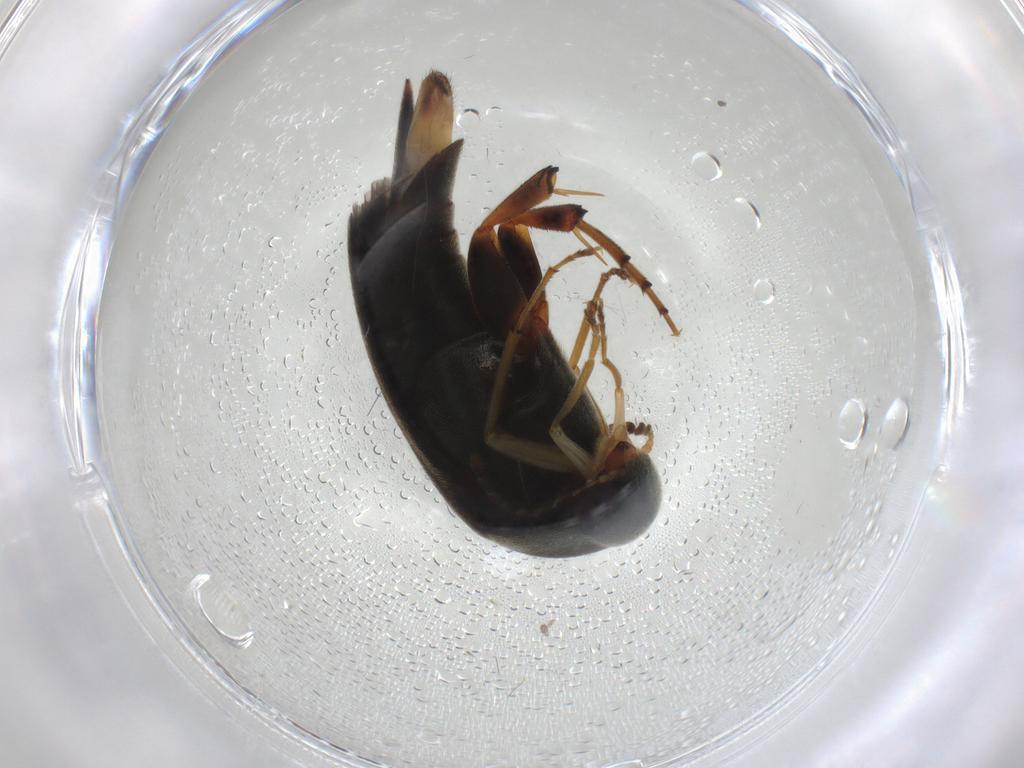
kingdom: Animalia
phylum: Arthropoda
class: Insecta
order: Coleoptera
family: Mordellidae
